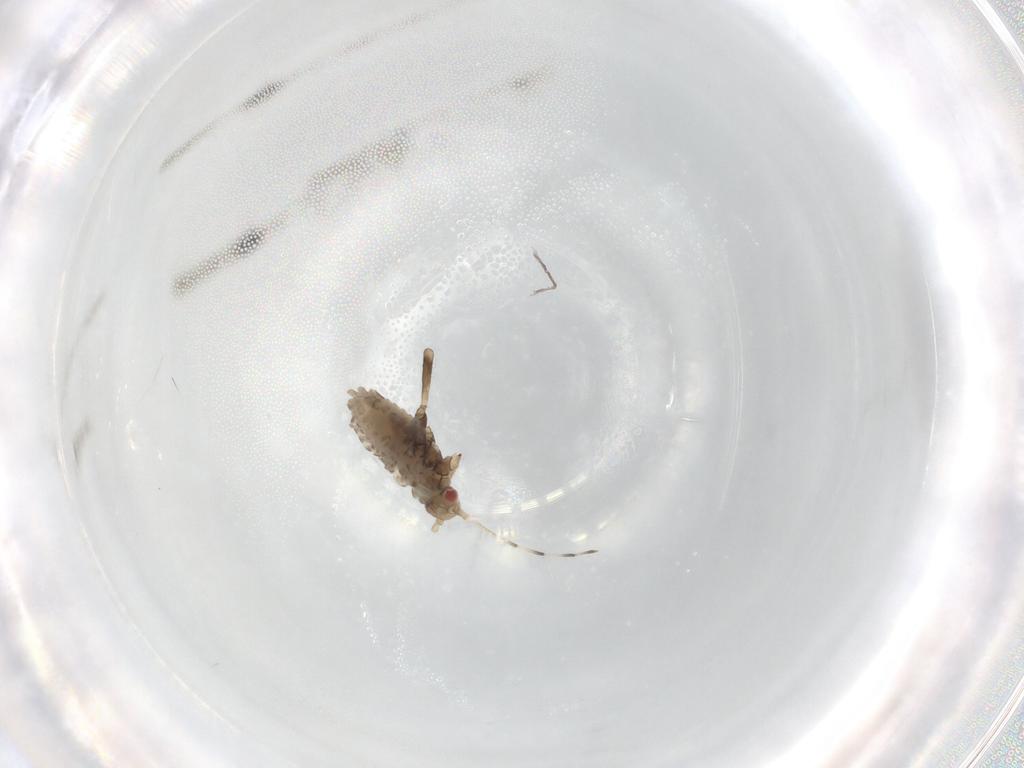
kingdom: Animalia
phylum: Arthropoda
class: Insecta
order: Hemiptera
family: Aphididae
